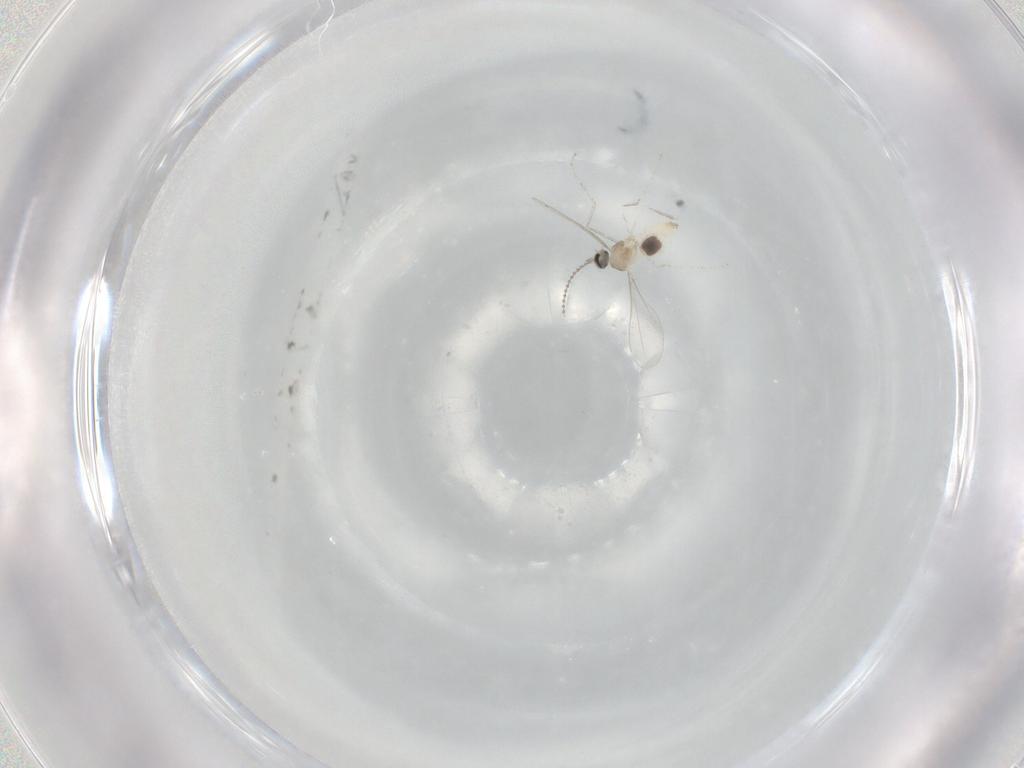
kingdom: Animalia
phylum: Arthropoda
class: Insecta
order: Diptera
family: Cecidomyiidae
